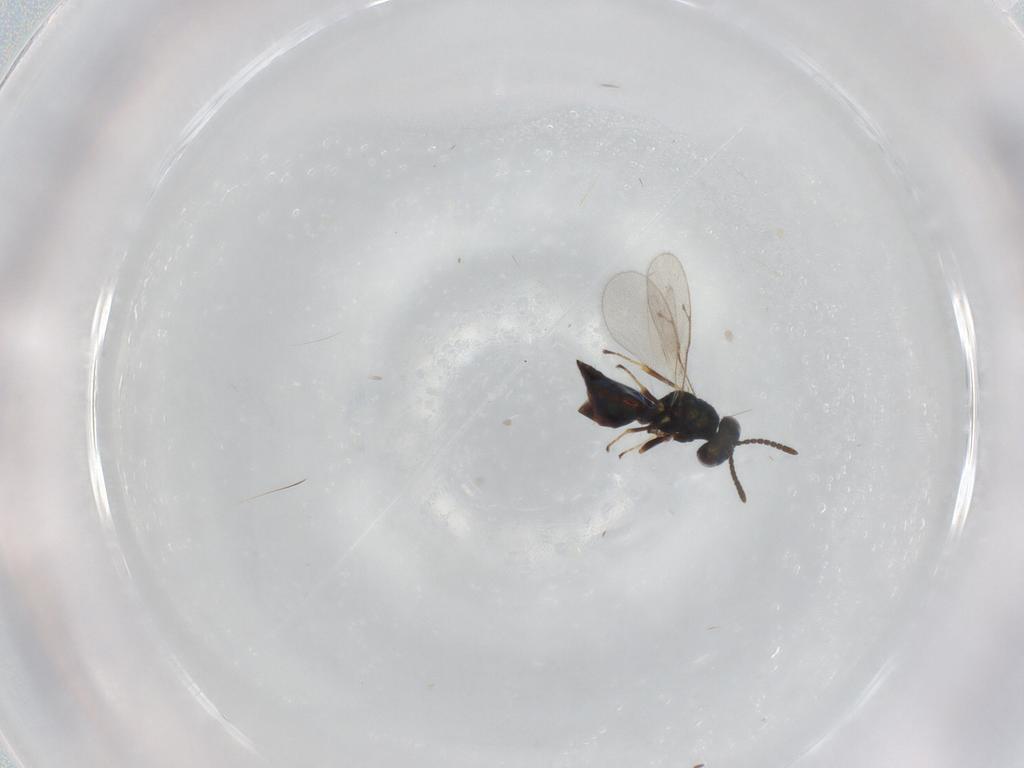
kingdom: Animalia
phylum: Arthropoda
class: Insecta
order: Hymenoptera
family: Pteromalidae
